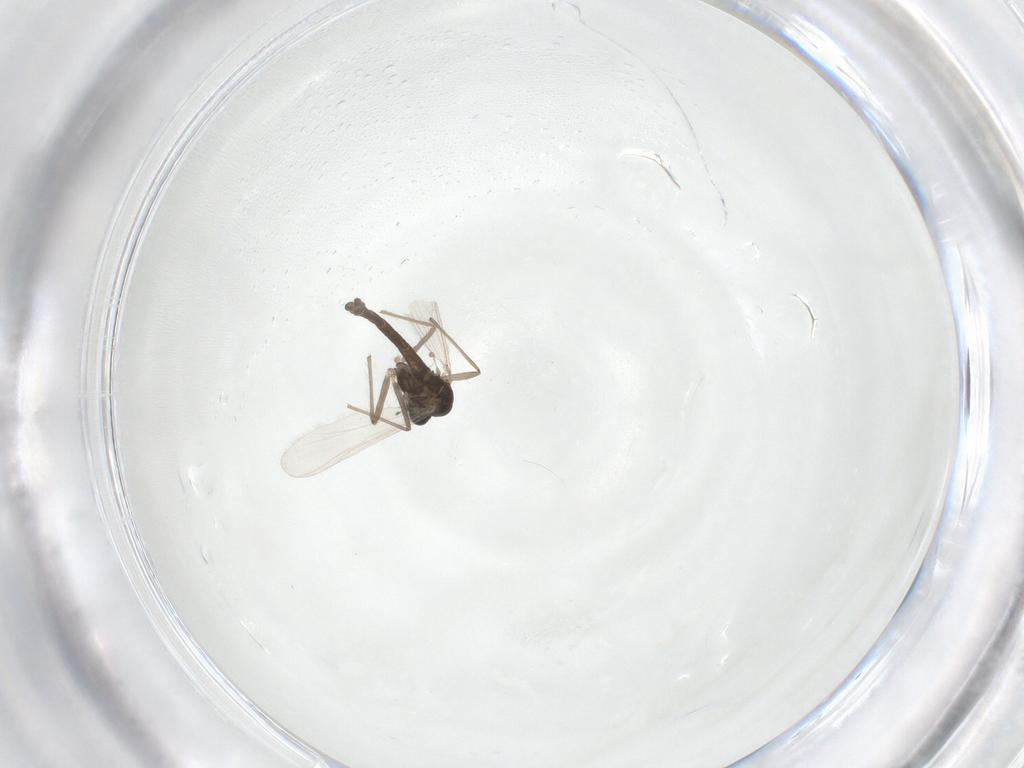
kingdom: Animalia
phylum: Arthropoda
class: Insecta
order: Diptera
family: Chironomidae
